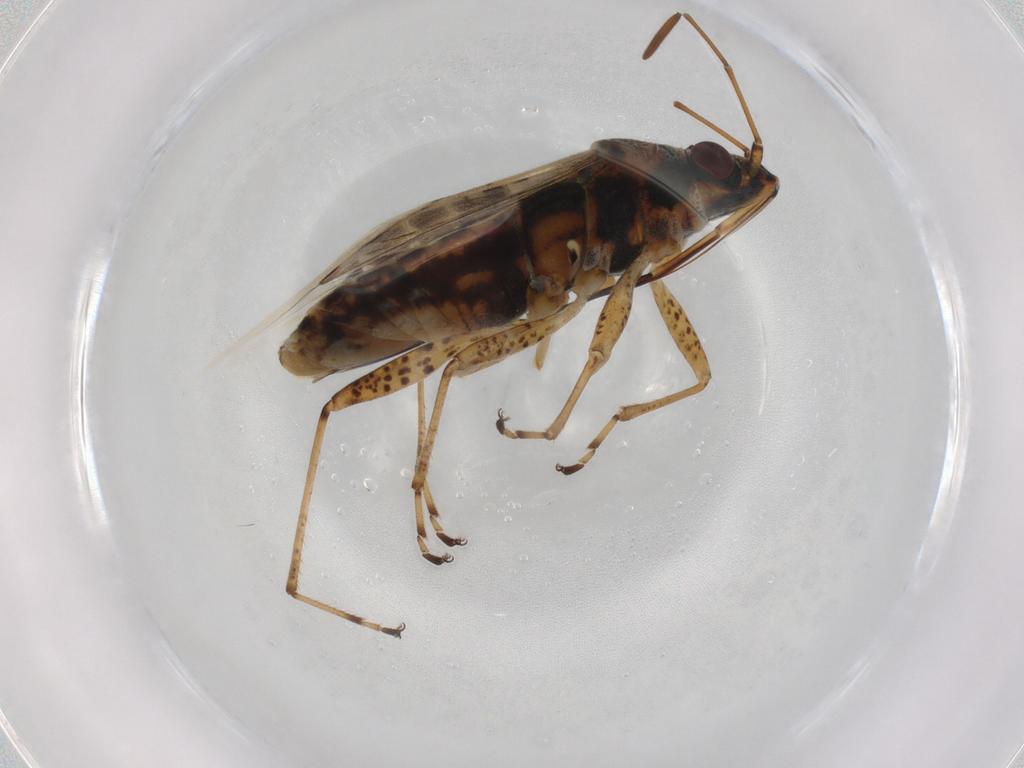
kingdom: Animalia
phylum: Arthropoda
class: Insecta
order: Hemiptera
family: Lygaeidae
